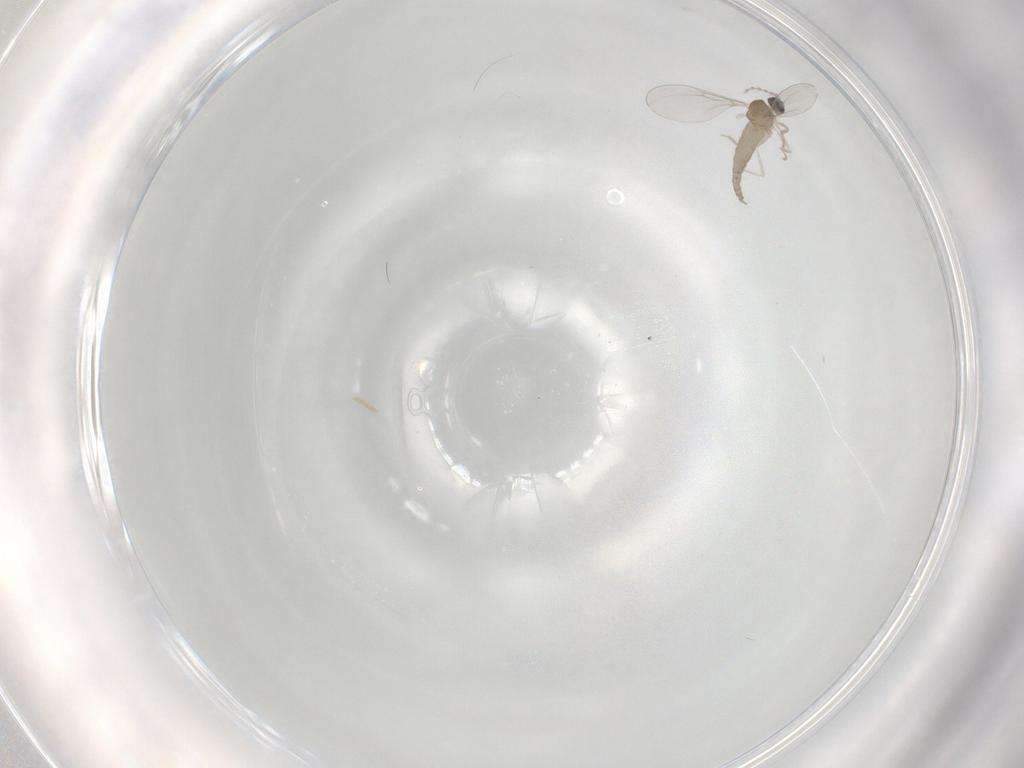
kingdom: Animalia
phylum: Arthropoda
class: Insecta
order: Diptera
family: Cecidomyiidae
